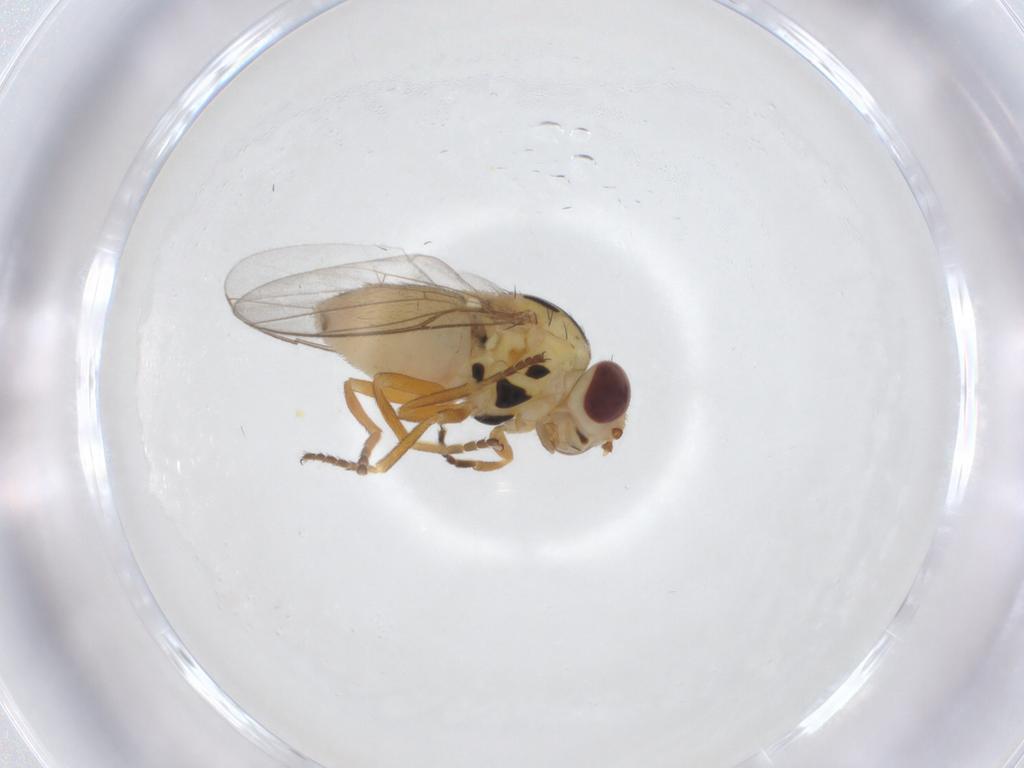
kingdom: Animalia
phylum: Arthropoda
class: Insecta
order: Diptera
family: Chloropidae
